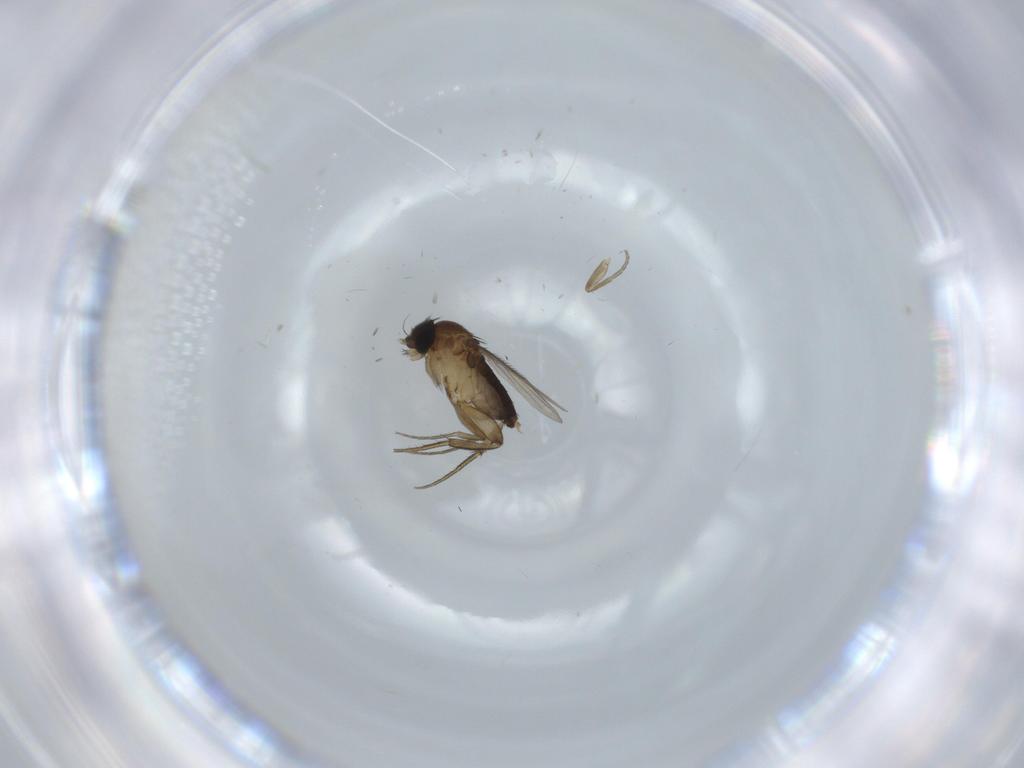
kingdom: Animalia
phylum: Arthropoda
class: Insecta
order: Diptera
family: Phoridae
